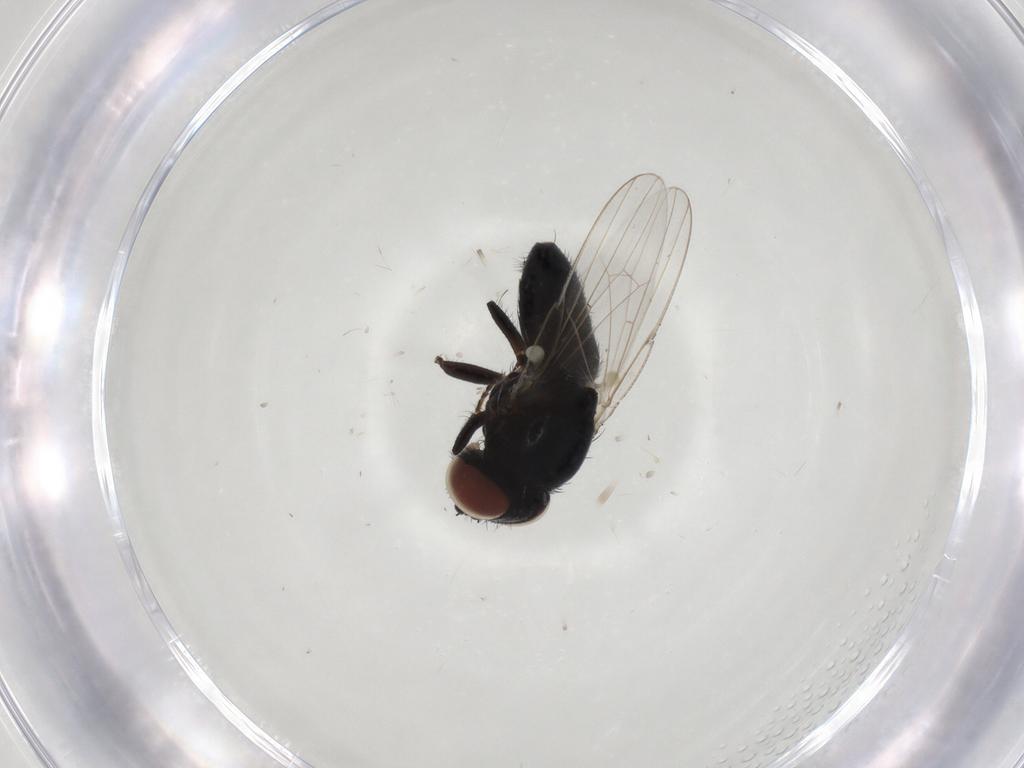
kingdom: Animalia
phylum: Arthropoda
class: Insecta
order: Diptera
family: Milichiidae
